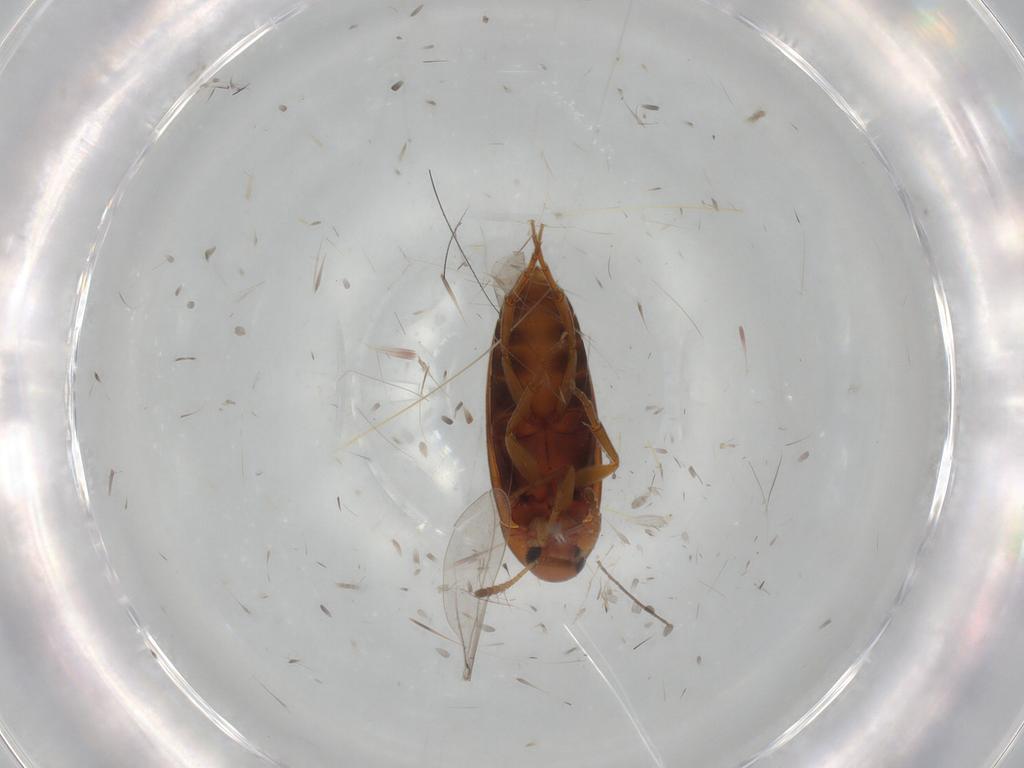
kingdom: Animalia
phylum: Arthropoda
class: Insecta
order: Coleoptera
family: Scraptiidae
